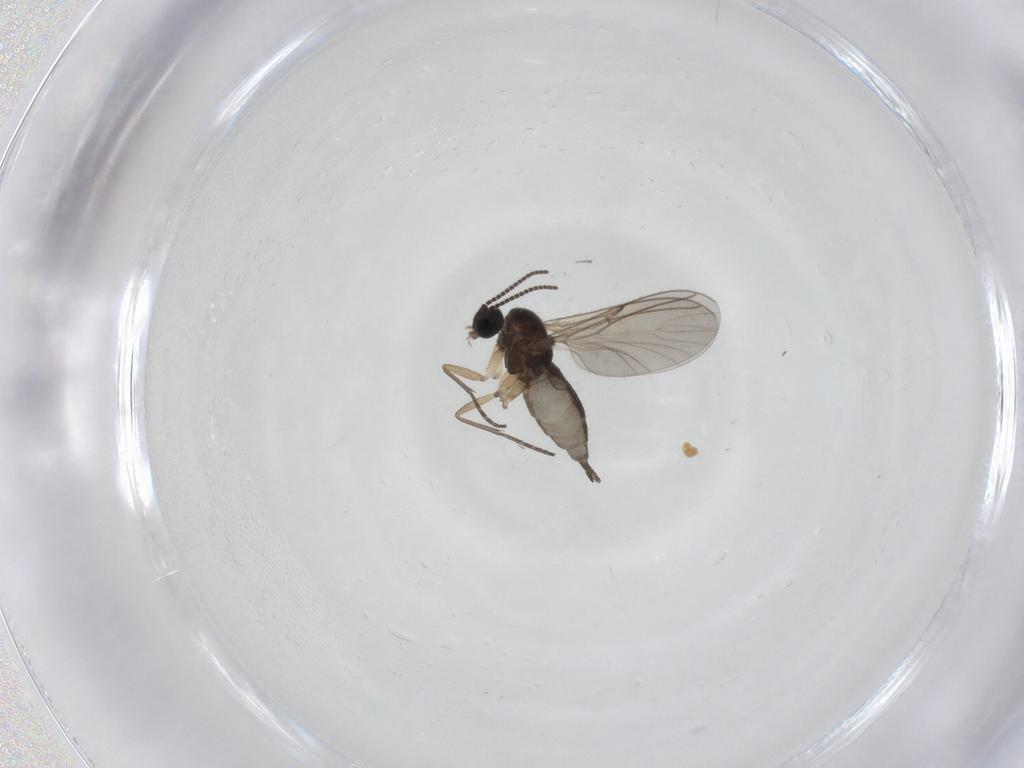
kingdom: Animalia
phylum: Arthropoda
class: Insecta
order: Diptera
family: Sciaridae
